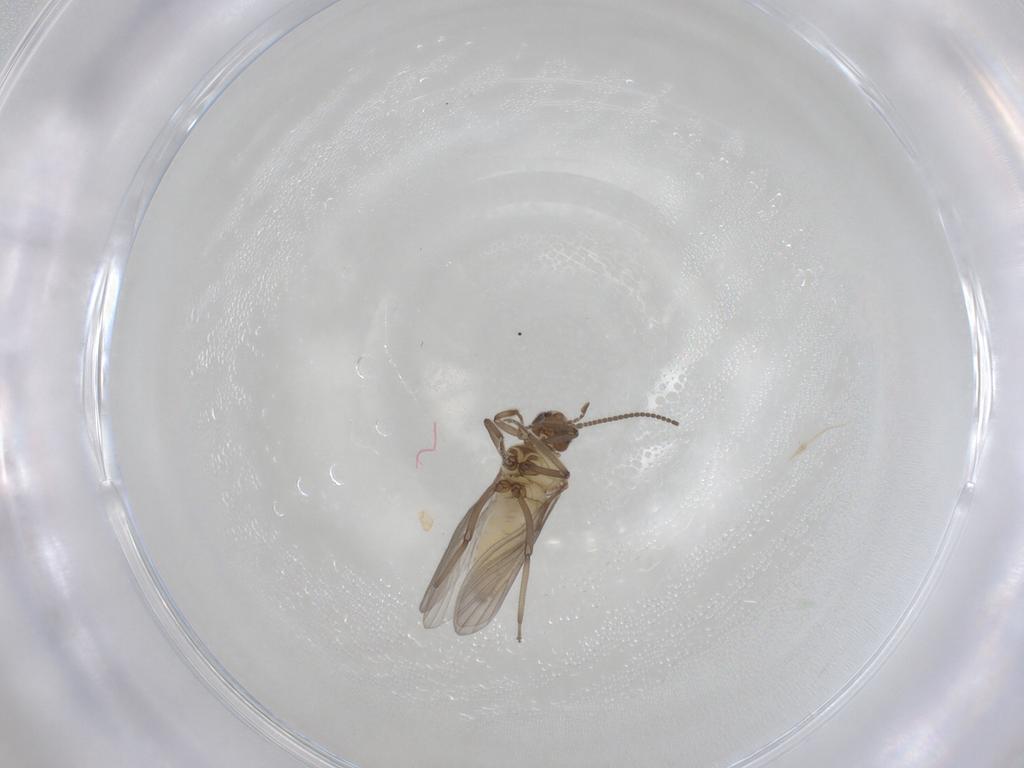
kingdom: Animalia
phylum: Arthropoda
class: Insecta
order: Neuroptera
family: Coniopterygidae
